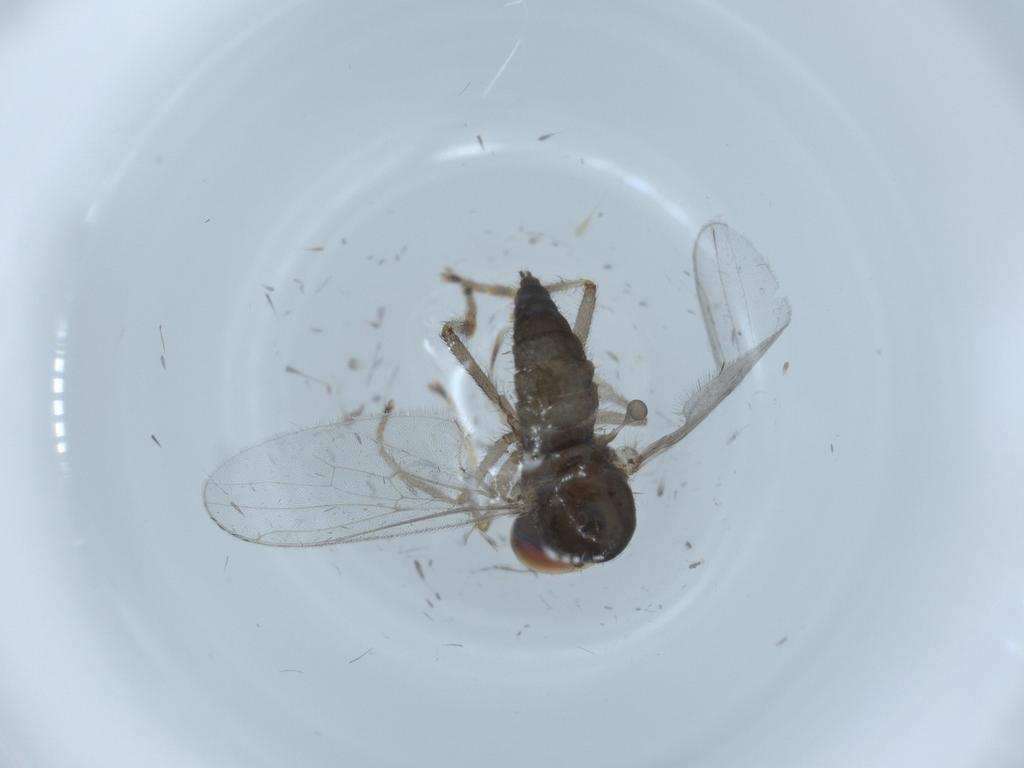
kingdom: Animalia
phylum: Arthropoda
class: Insecta
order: Diptera
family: Hybotidae
